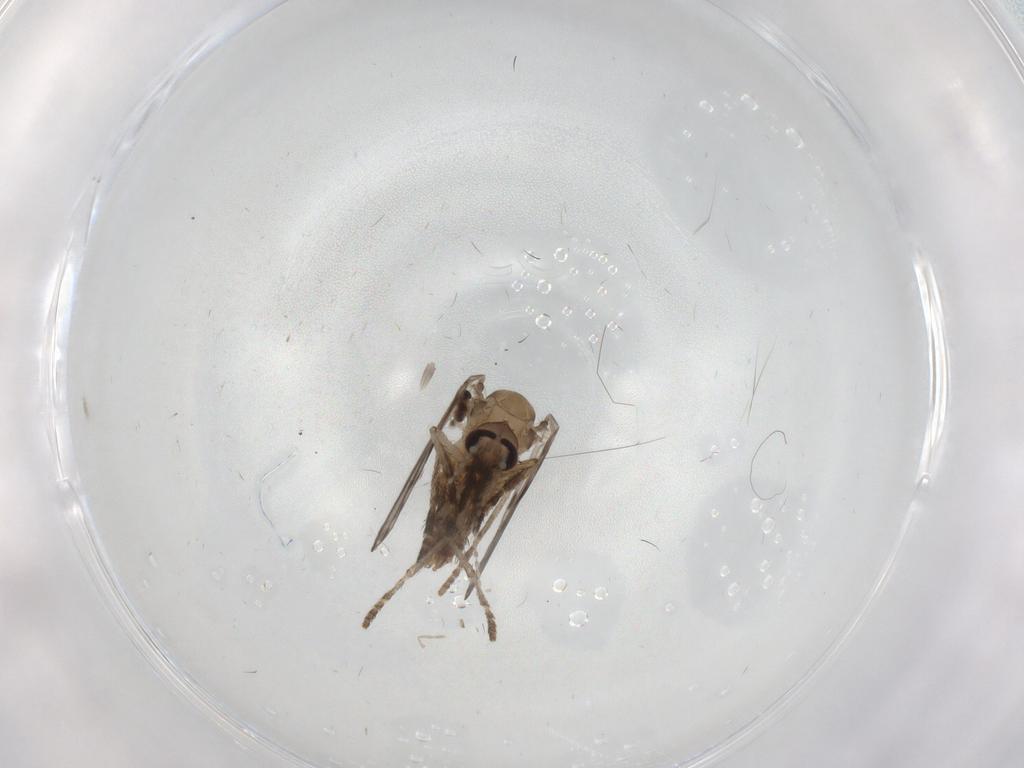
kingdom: Animalia
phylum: Arthropoda
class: Insecta
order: Diptera
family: Psychodidae
